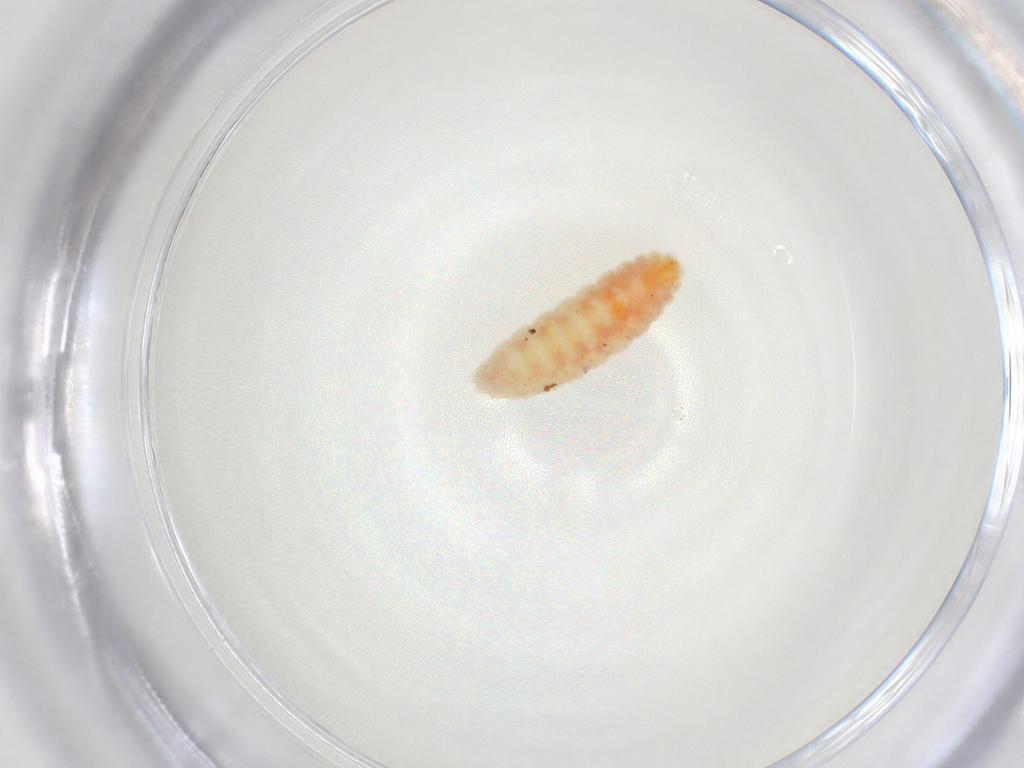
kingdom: Animalia
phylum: Arthropoda
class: Insecta
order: Diptera
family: Cecidomyiidae
